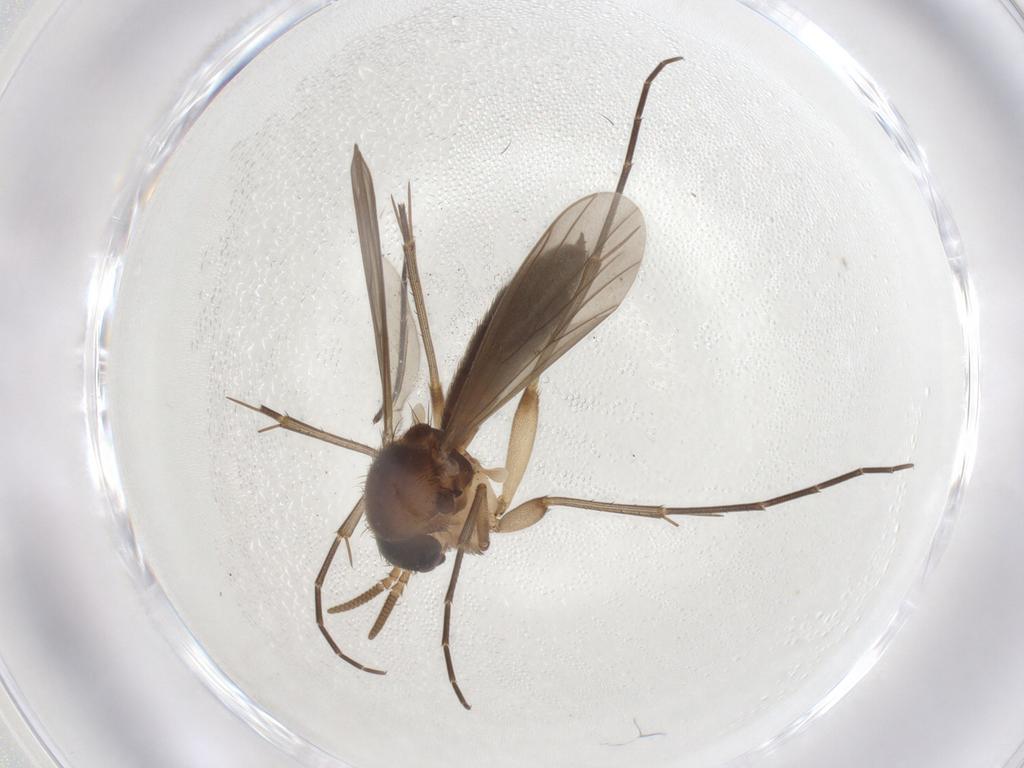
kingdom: Animalia
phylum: Arthropoda
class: Insecta
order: Diptera
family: Mycetophilidae
